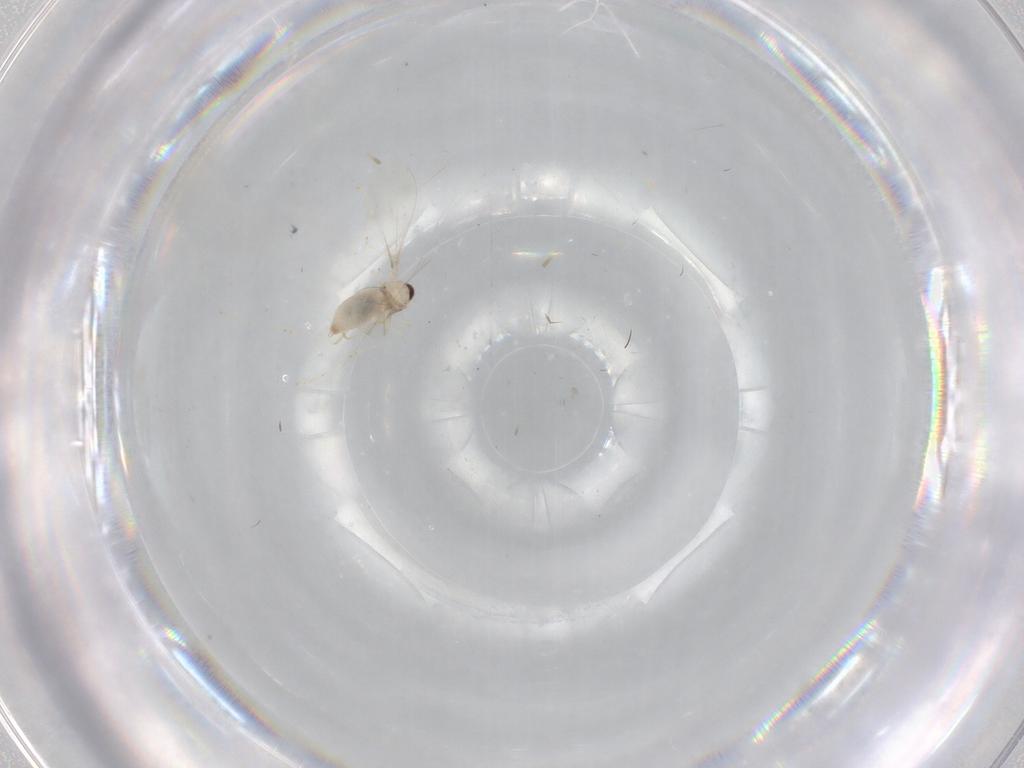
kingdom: Animalia
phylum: Arthropoda
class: Insecta
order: Diptera
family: Cecidomyiidae
